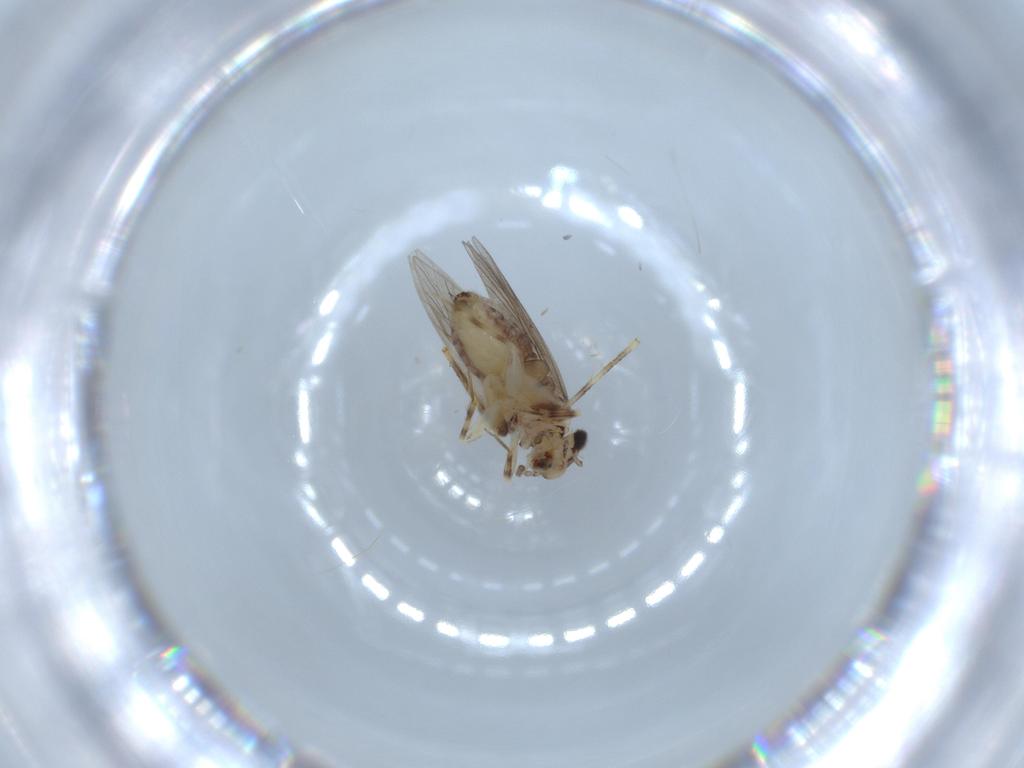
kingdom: Animalia
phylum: Arthropoda
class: Insecta
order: Psocodea
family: Lepidopsocidae
